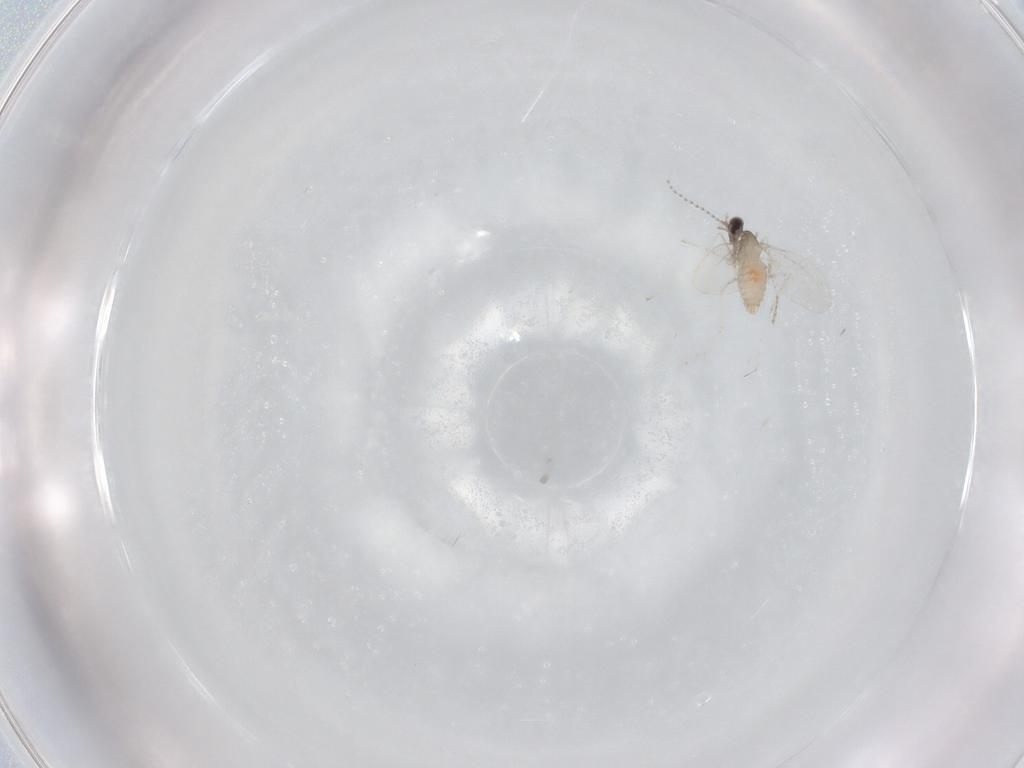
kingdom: Animalia
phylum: Arthropoda
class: Insecta
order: Diptera
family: Cecidomyiidae
